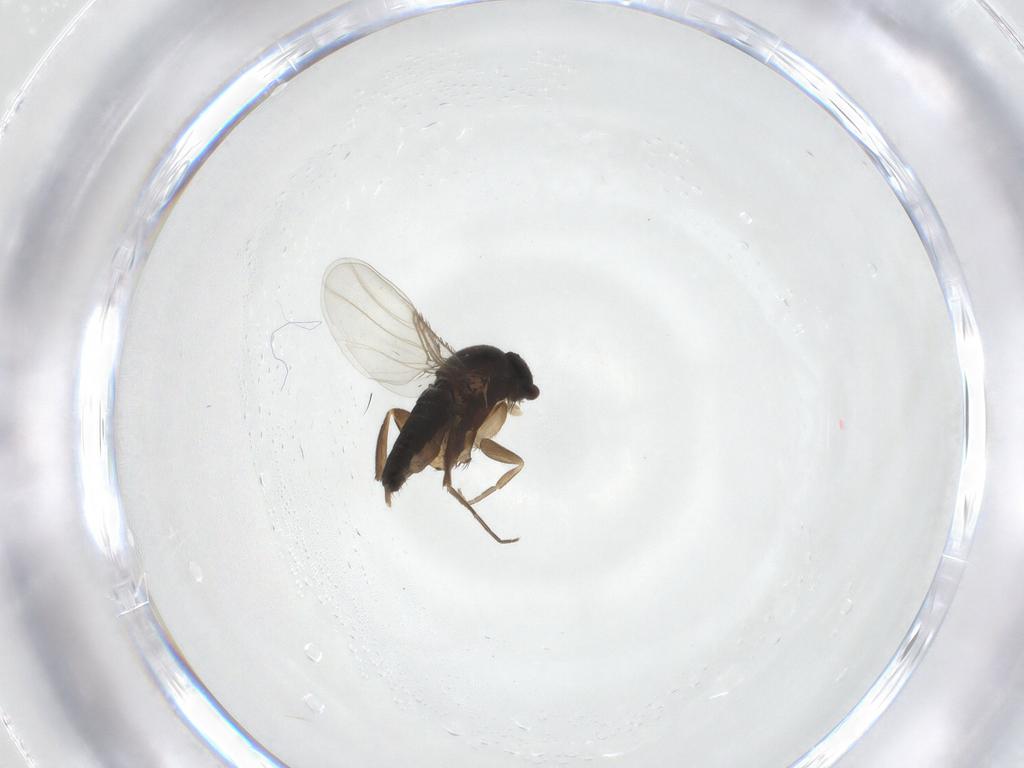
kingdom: Animalia
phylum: Arthropoda
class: Insecta
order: Diptera
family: Phoridae
